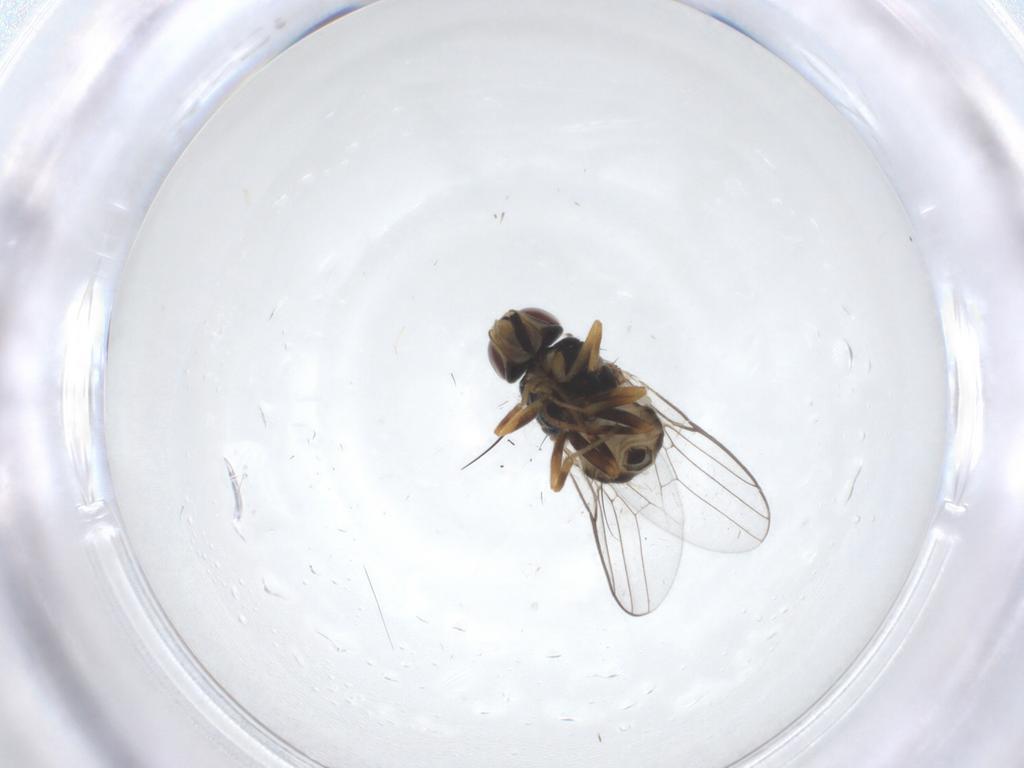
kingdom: Animalia
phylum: Arthropoda
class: Insecta
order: Diptera
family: Chloropidae
